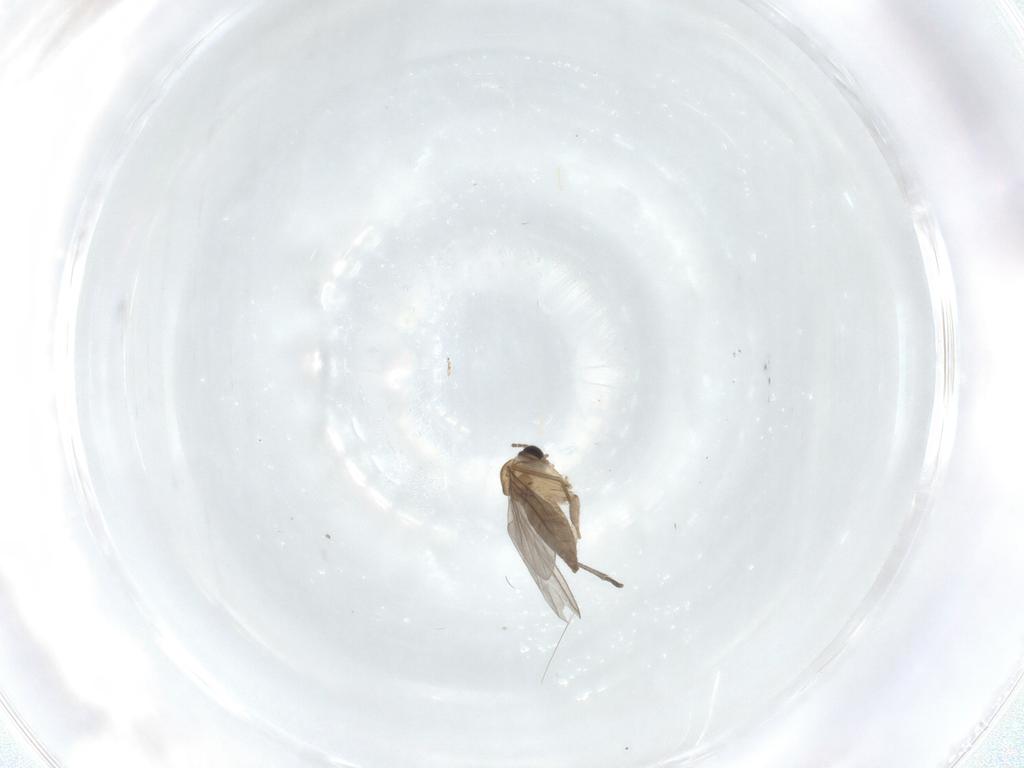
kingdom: Animalia
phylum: Arthropoda
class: Insecta
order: Diptera
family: Sciaridae
